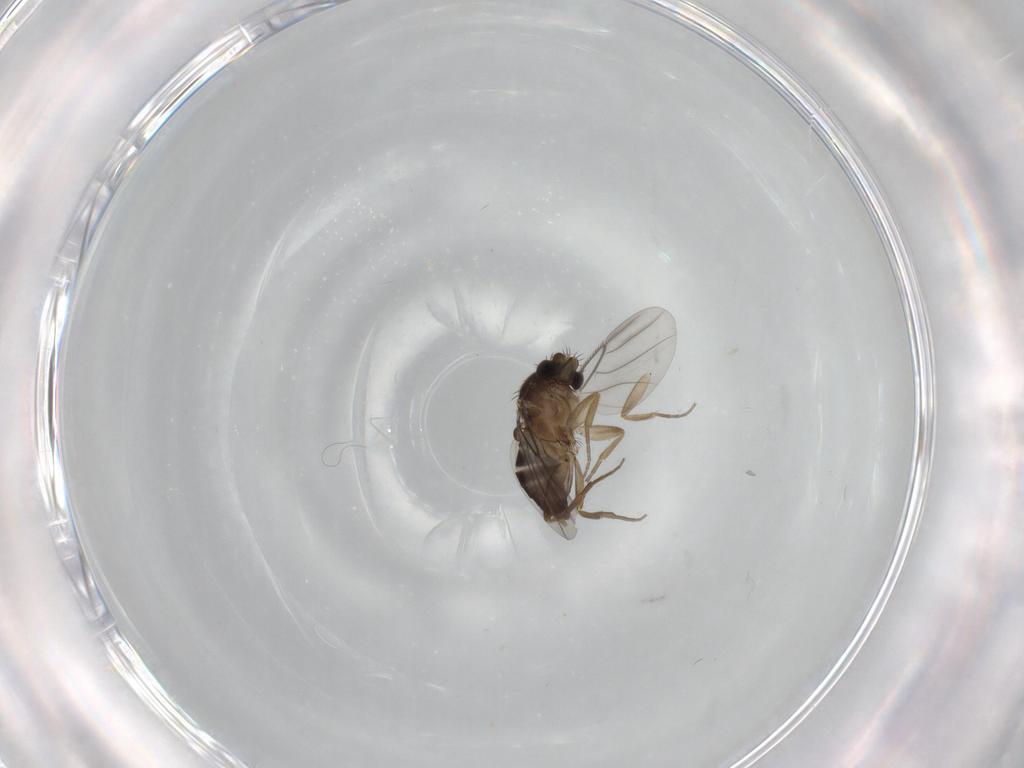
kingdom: Animalia
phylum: Arthropoda
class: Insecta
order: Diptera
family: Phoridae
